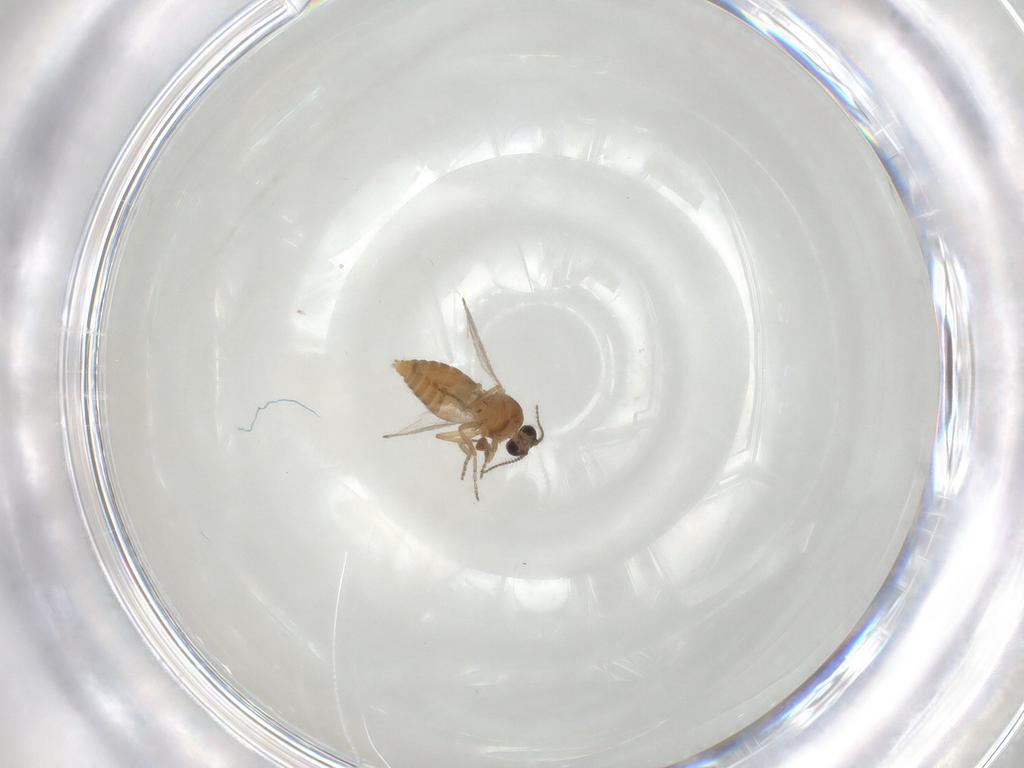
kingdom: Animalia
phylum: Arthropoda
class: Insecta
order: Diptera
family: Ceratopogonidae
